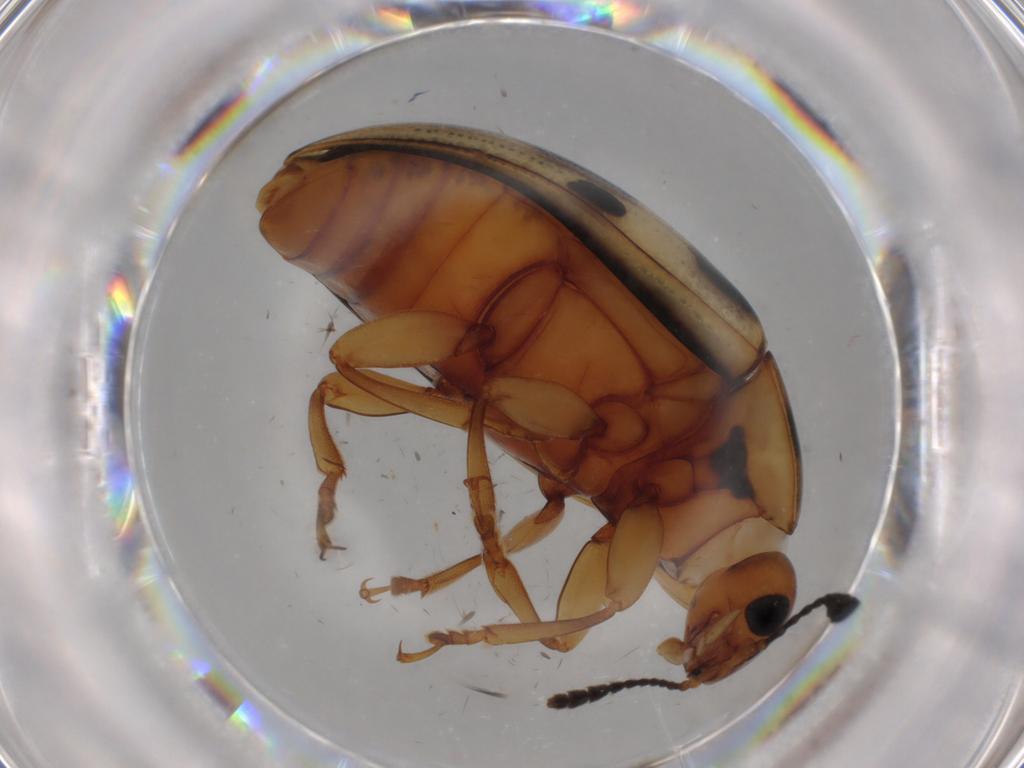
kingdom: Animalia
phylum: Arthropoda
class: Insecta
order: Coleoptera
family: Erotylidae
